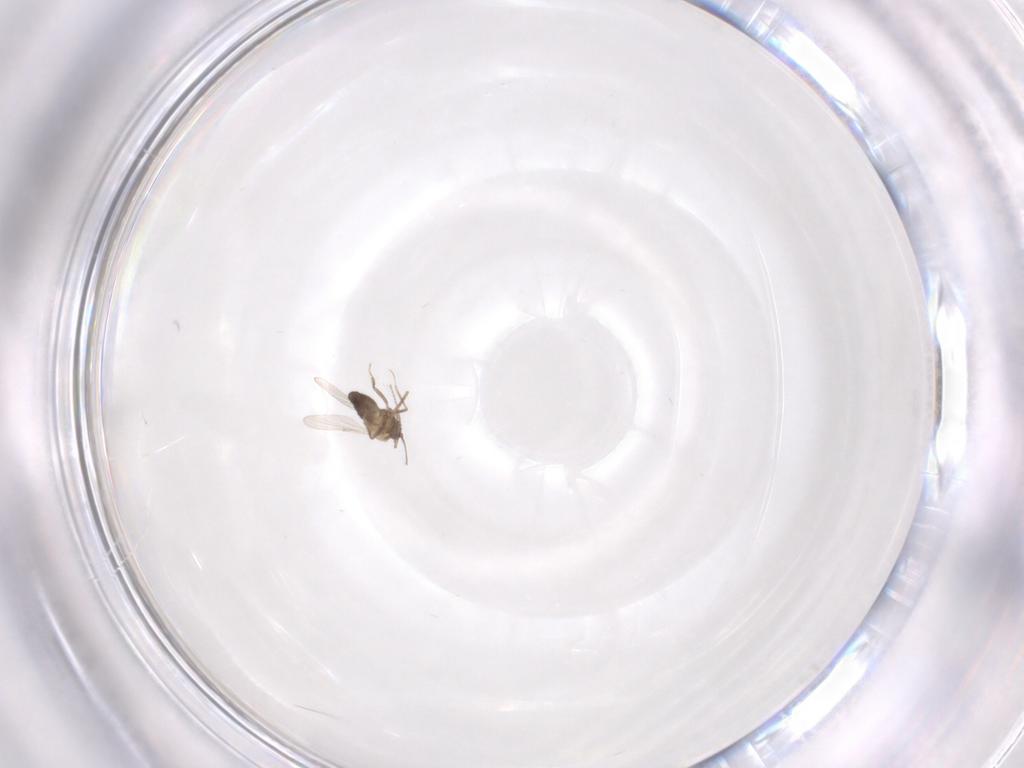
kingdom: Animalia
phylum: Arthropoda
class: Insecta
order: Diptera
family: Ceratopogonidae
